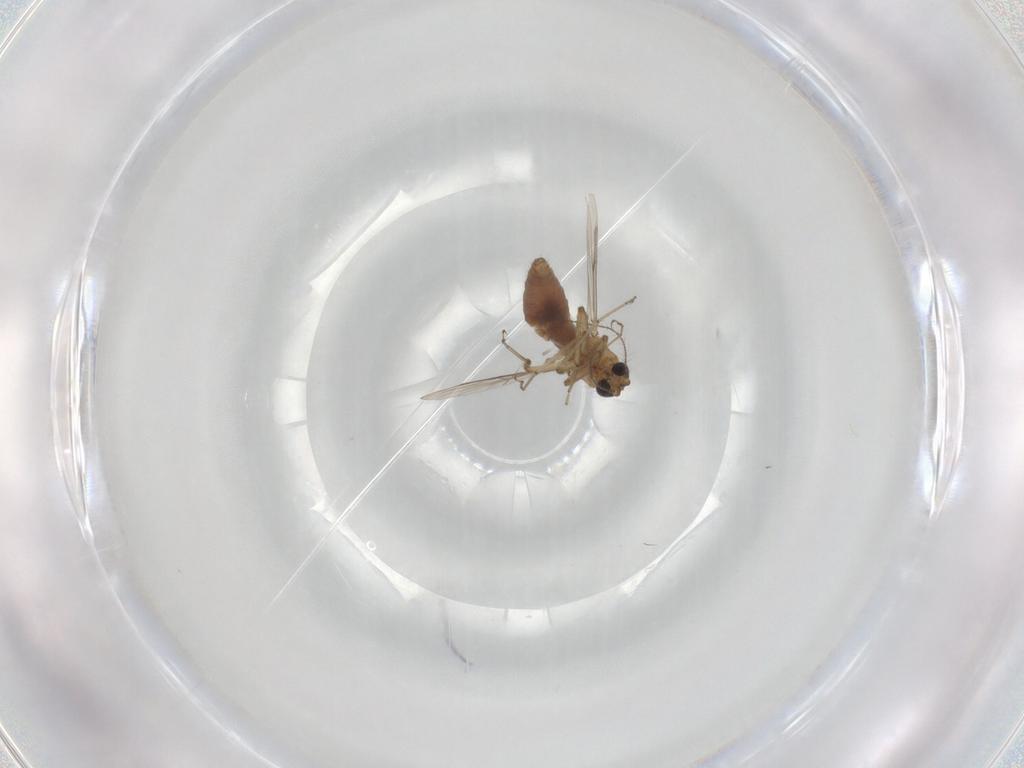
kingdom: Animalia
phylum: Arthropoda
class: Insecta
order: Diptera
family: Ceratopogonidae
